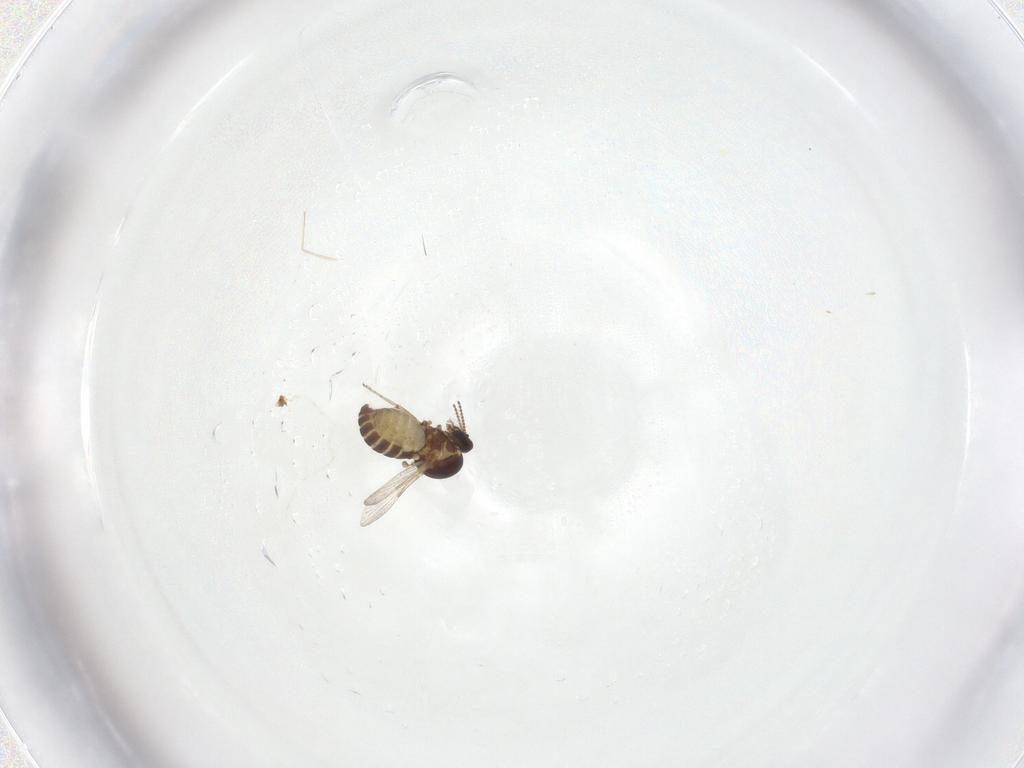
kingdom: Animalia
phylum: Arthropoda
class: Insecta
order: Diptera
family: Ceratopogonidae
